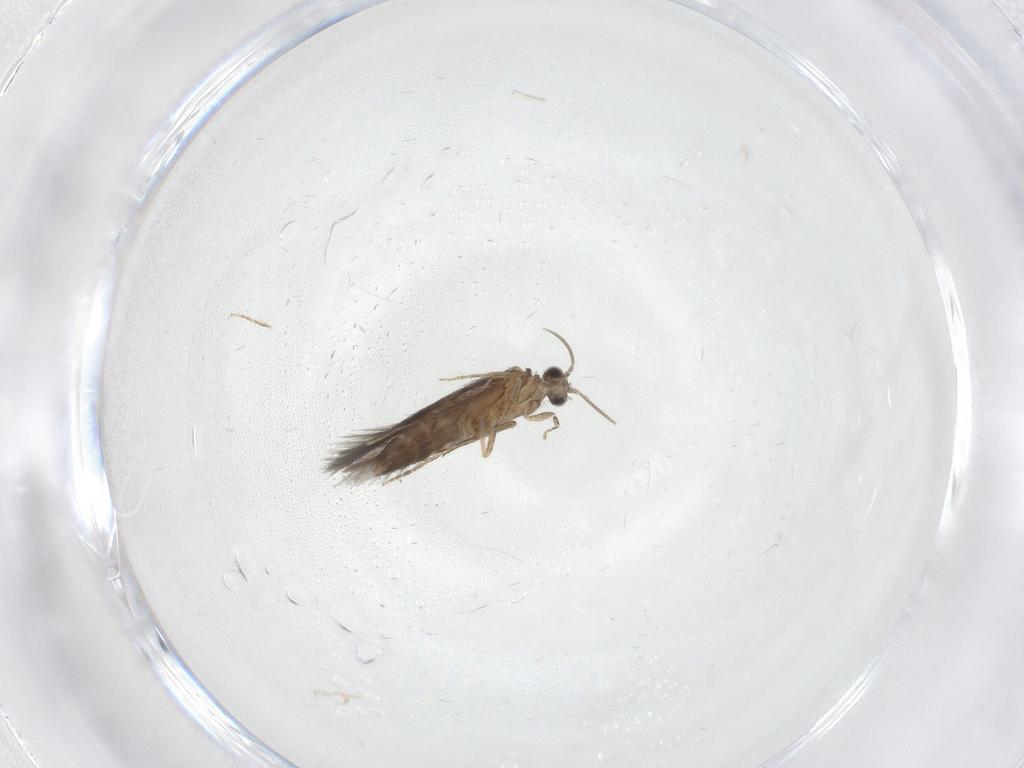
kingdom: Animalia
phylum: Arthropoda
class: Insecta
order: Trichoptera
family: Hydroptilidae
